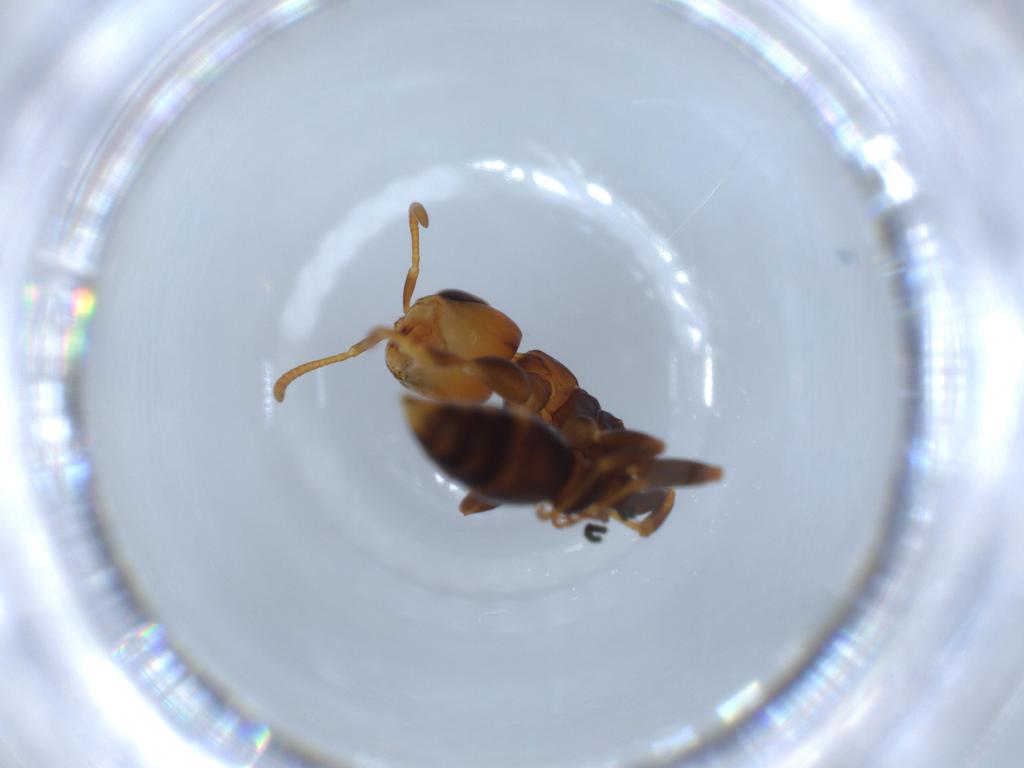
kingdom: Animalia
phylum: Arthropoda
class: Insecta
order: Hymenoptera
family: Formicidae
